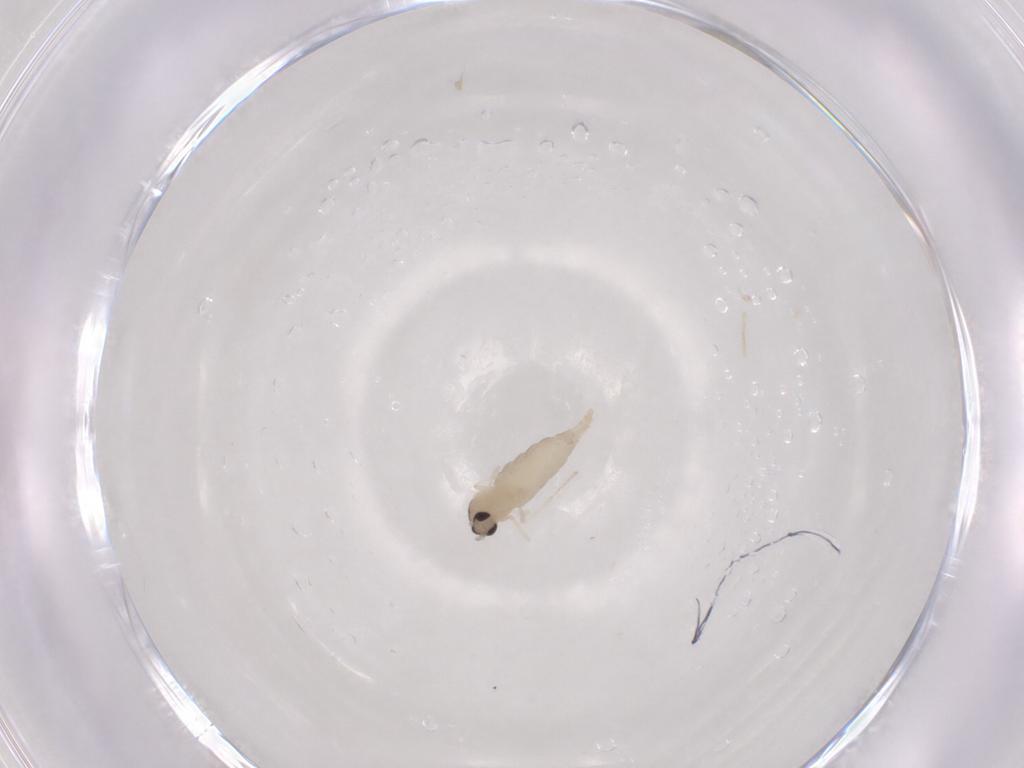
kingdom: Animalia
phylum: Arthropoda
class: Insecta
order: Diptera
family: Cecidomyiidae
